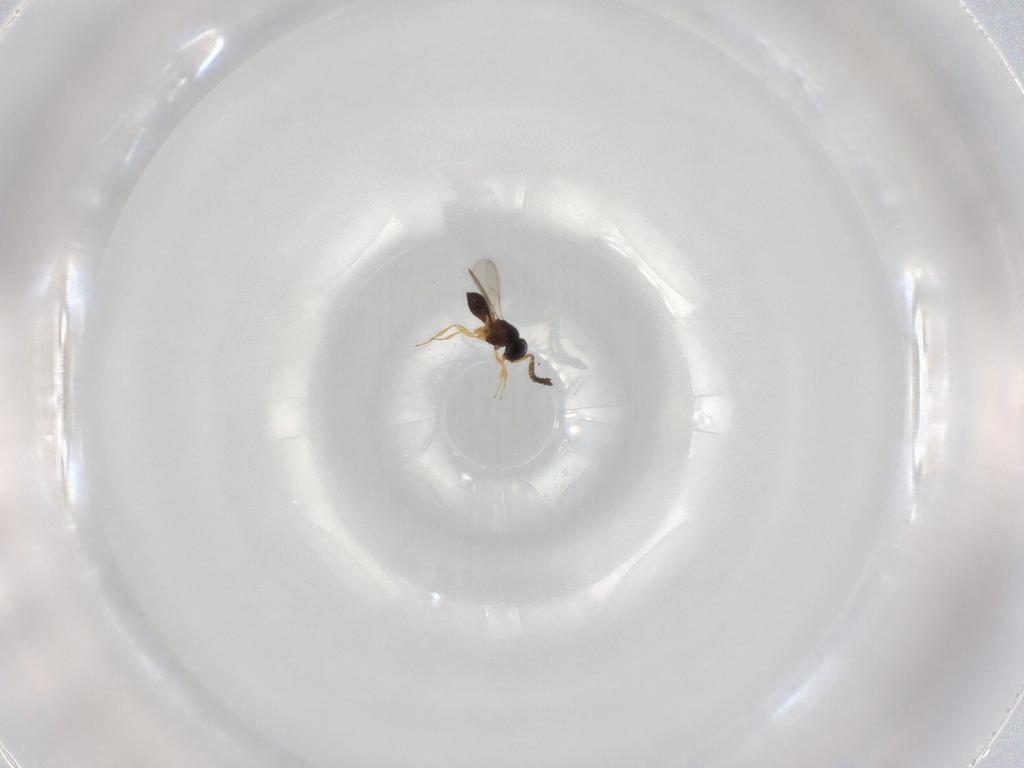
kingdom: Animalia
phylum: Arthropoda
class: Insecta
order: Hymenoptera
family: Scelionidae
